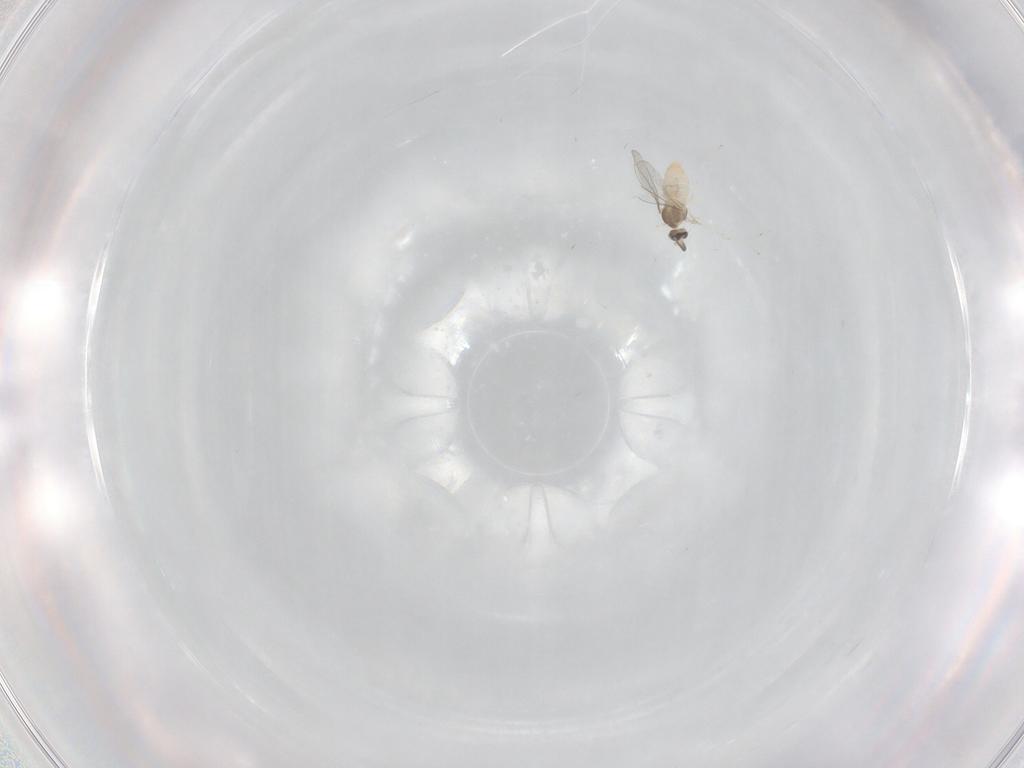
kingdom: Animalia
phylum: Arthropoda
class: Insecta
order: Diptera
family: Cecidomyiidae
